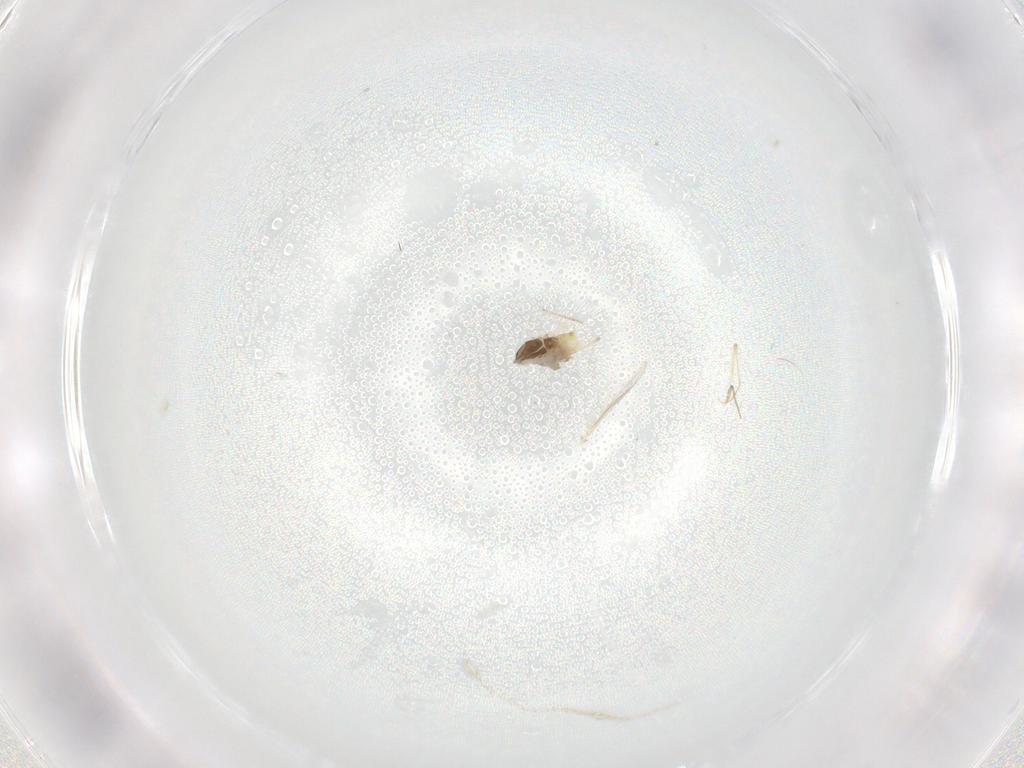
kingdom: Animalia
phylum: Arthropoda
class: Insecta
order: Diptera
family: Chironomidae
